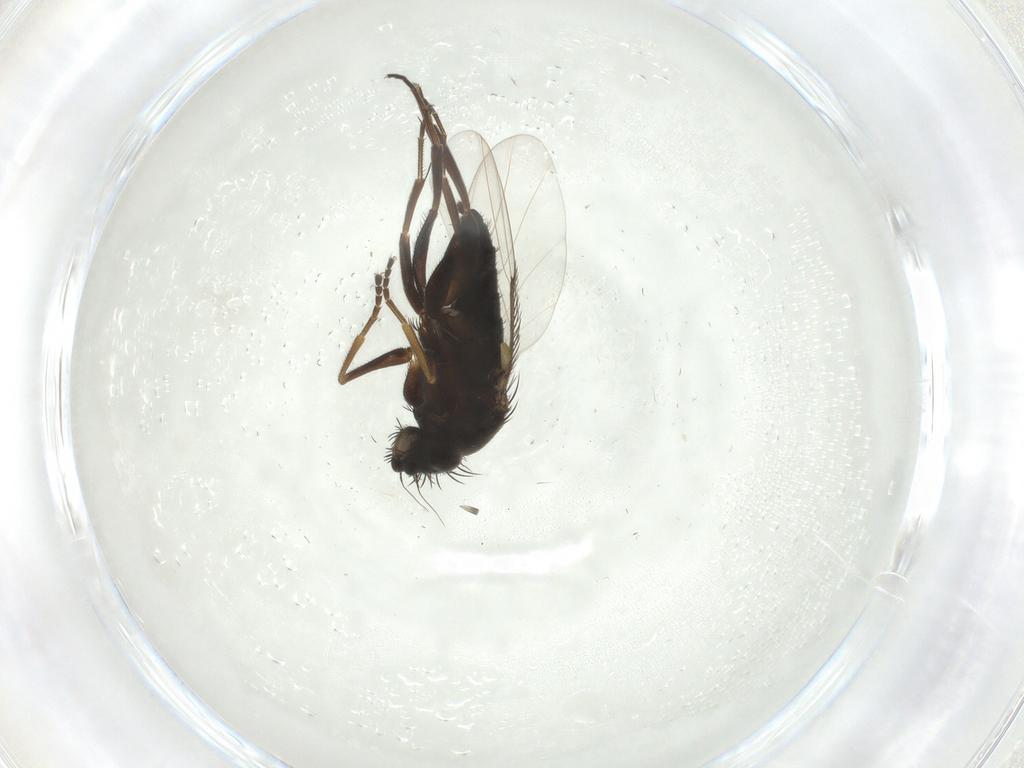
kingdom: Animalia
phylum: Arthropoda
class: Insecta
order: Diptera
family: Phoridae
